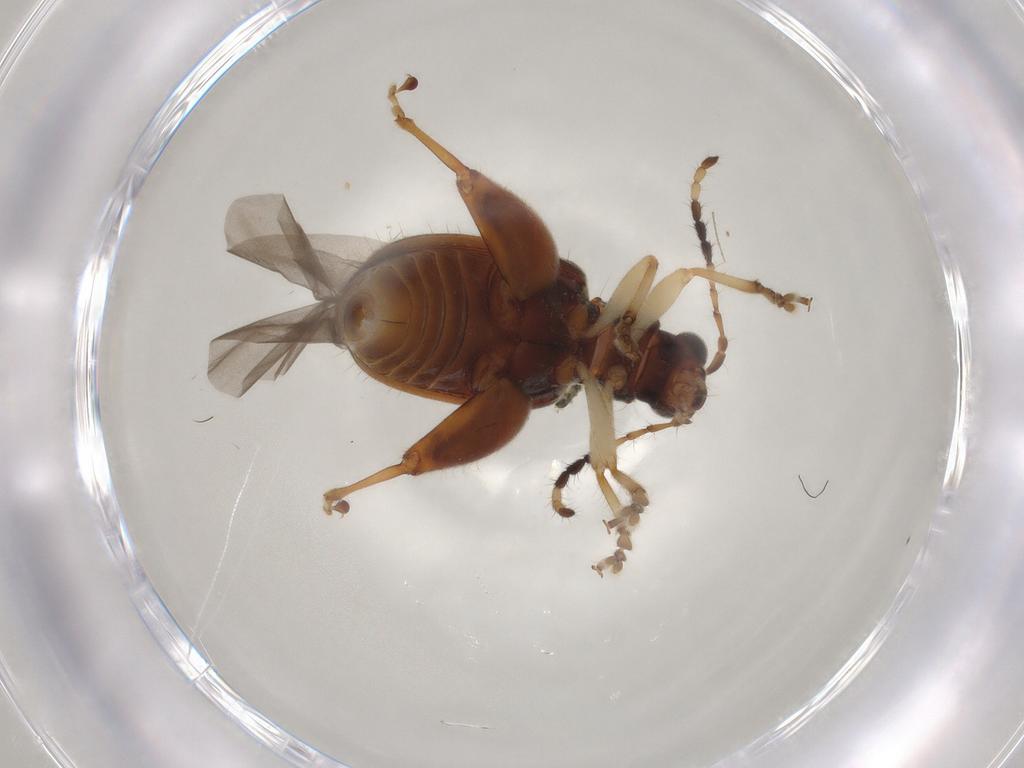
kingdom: Animalia
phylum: Arthropoda
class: Insecta
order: Coleoptera
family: Chrysomelidae
